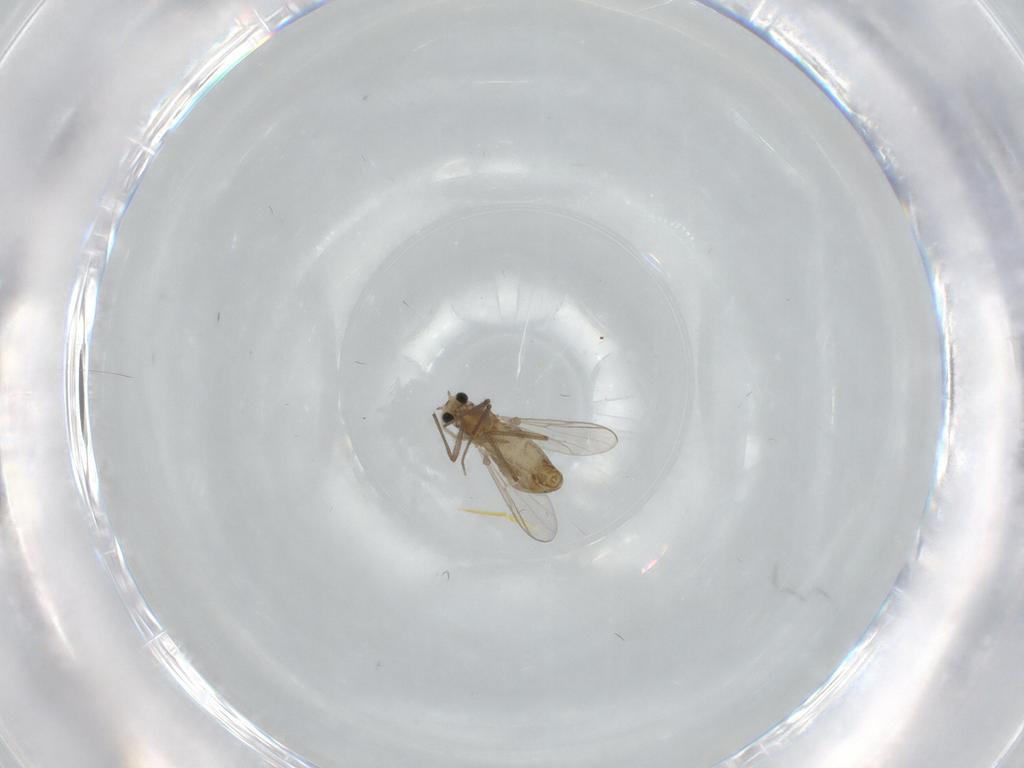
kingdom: Animalia
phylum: Arthropoda
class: Insecta
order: Diptera
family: Chironomidae
